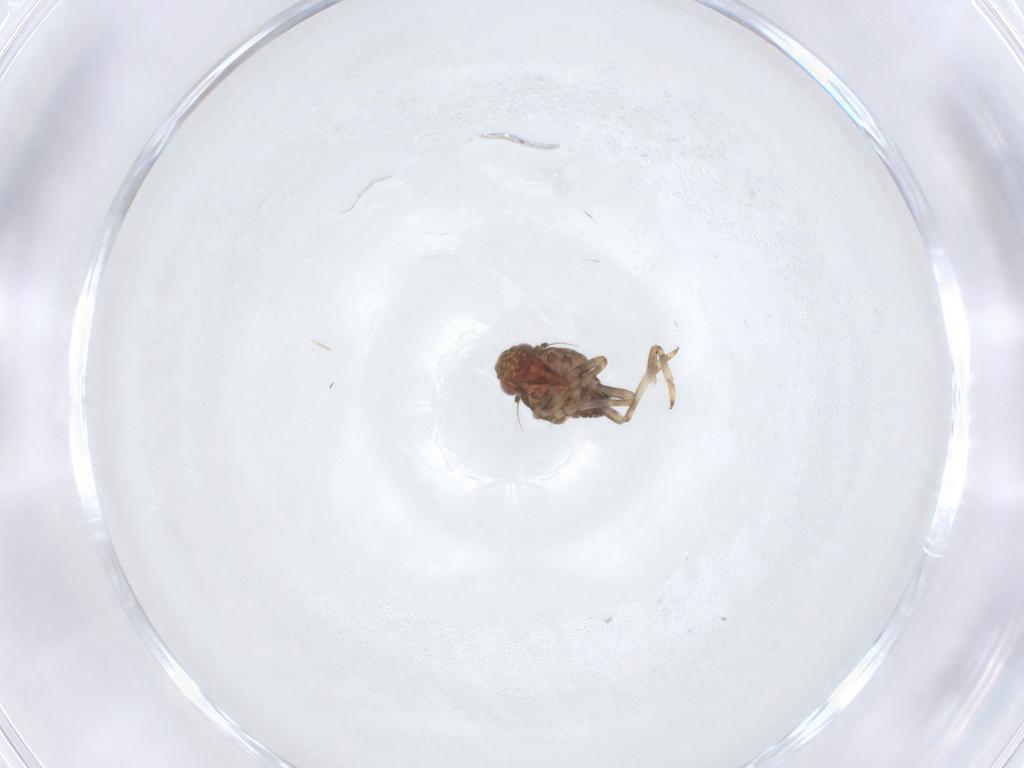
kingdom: Animalia
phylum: Arthropoda
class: Insecta
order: Hemiptera
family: Tropiduchidae
